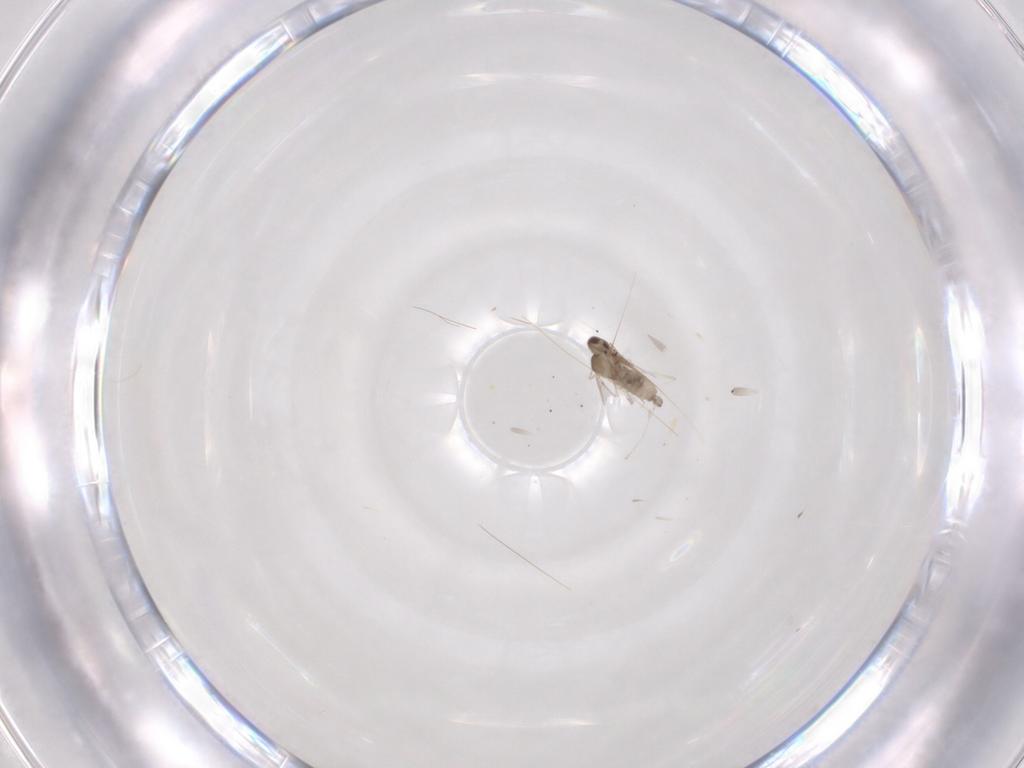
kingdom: Animalia
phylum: Arthropoda
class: Insecta
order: Diptera
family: Cecidomyiidae
